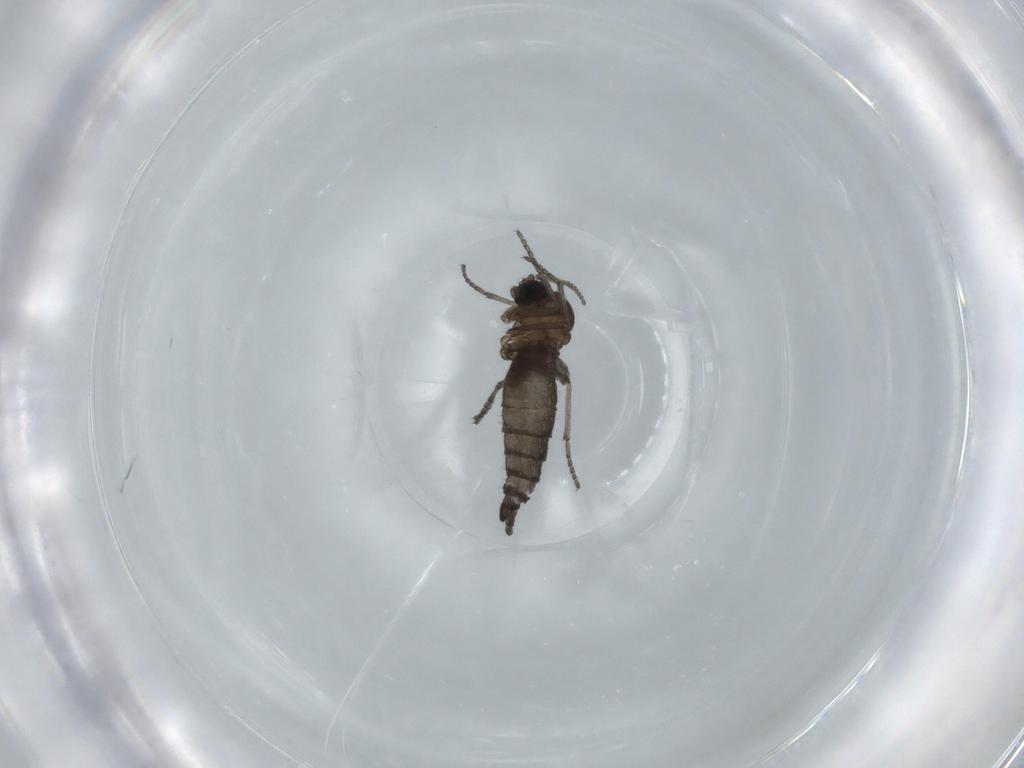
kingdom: Animalia
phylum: Arthropoda
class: Insecta
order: Diptera
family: Sciaridae
